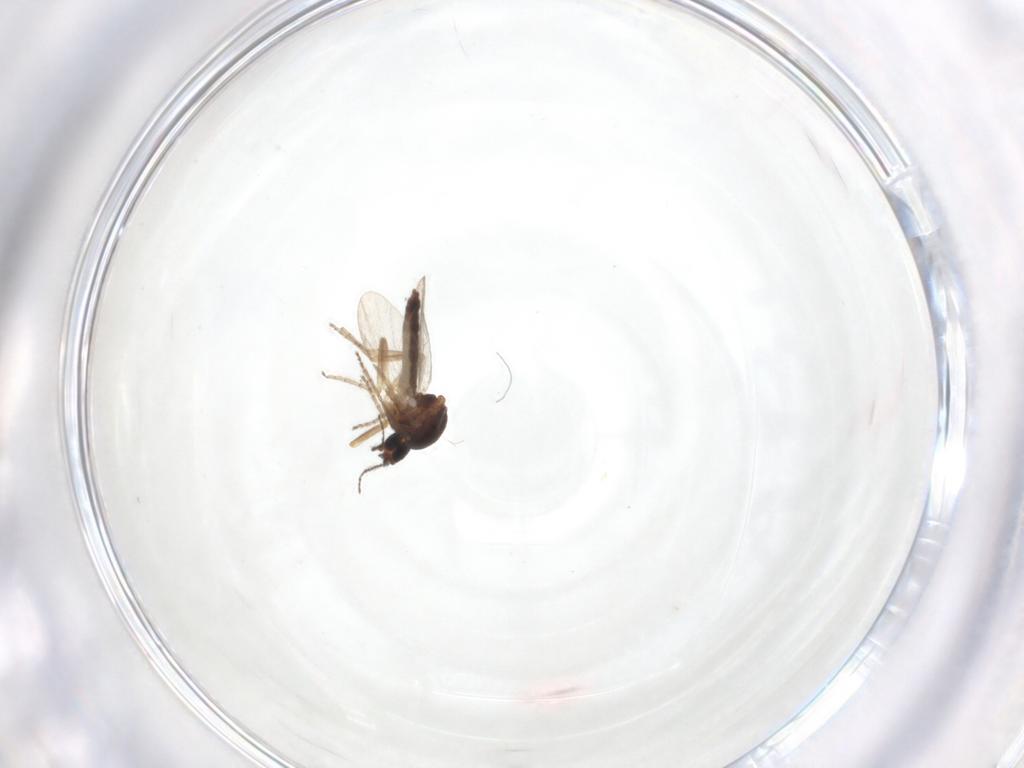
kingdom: Animalia
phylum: Arthropoda
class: Insecta
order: Diptera
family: Ceratopogonidae
